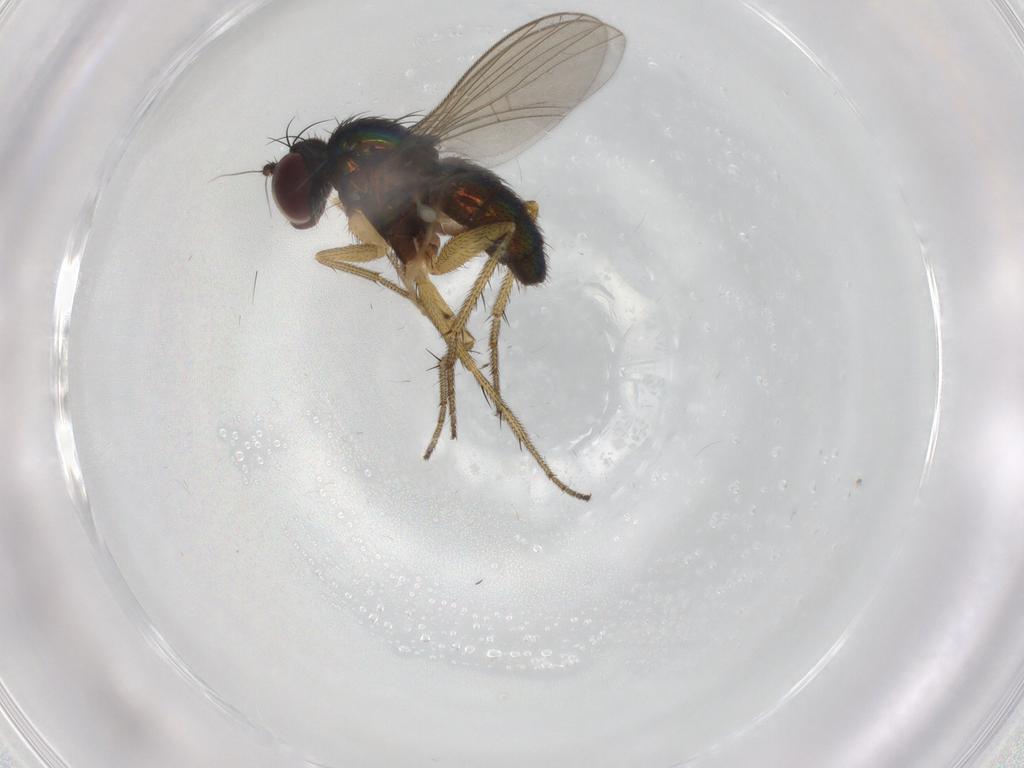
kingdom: Animalia
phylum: Arthropoda
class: Insecta
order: Diptera
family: Dolichopodidae
